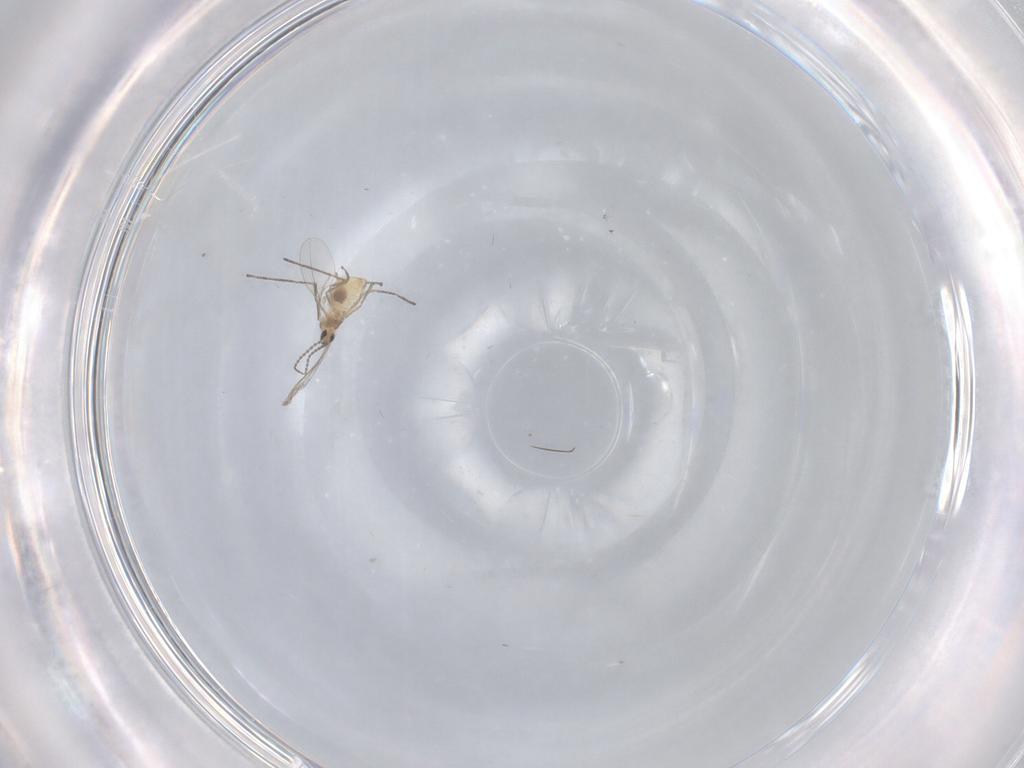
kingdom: Animalia
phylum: Arthropoda
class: Insecta
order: Diptera
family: Cecidomyiidae
